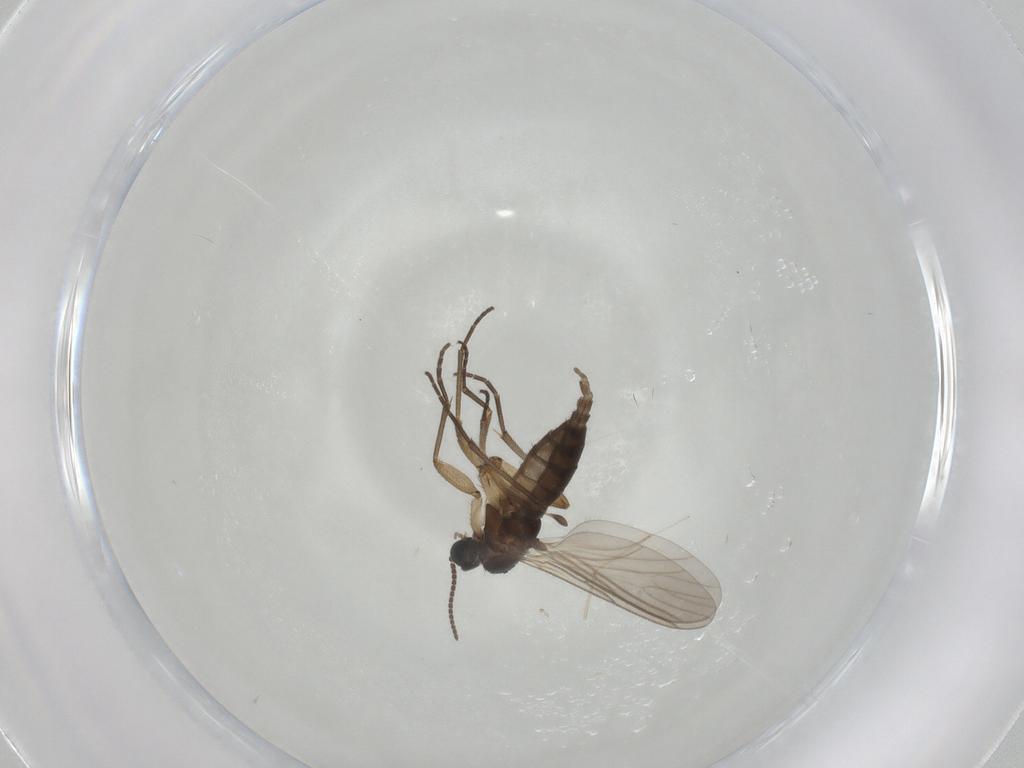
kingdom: Animalia
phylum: Arthropoda
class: Insecta
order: Diptera
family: Sciaridae
